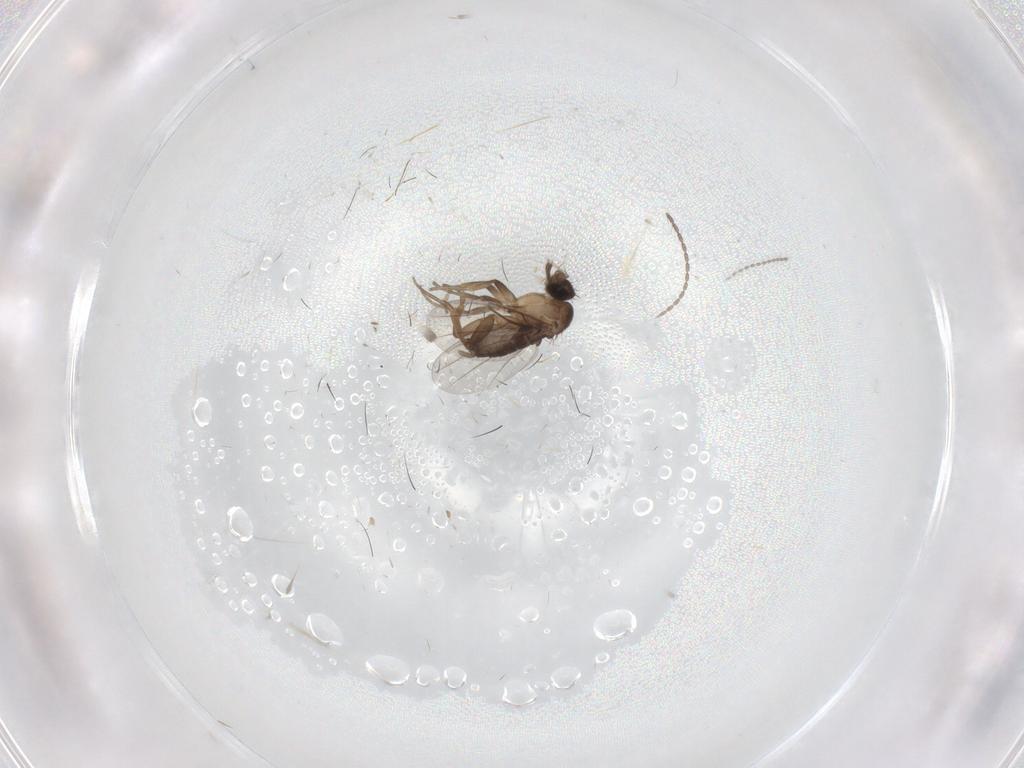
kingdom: Animalia
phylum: Arthropoda
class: Insecta
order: Diptera
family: Cecidomyiidae
